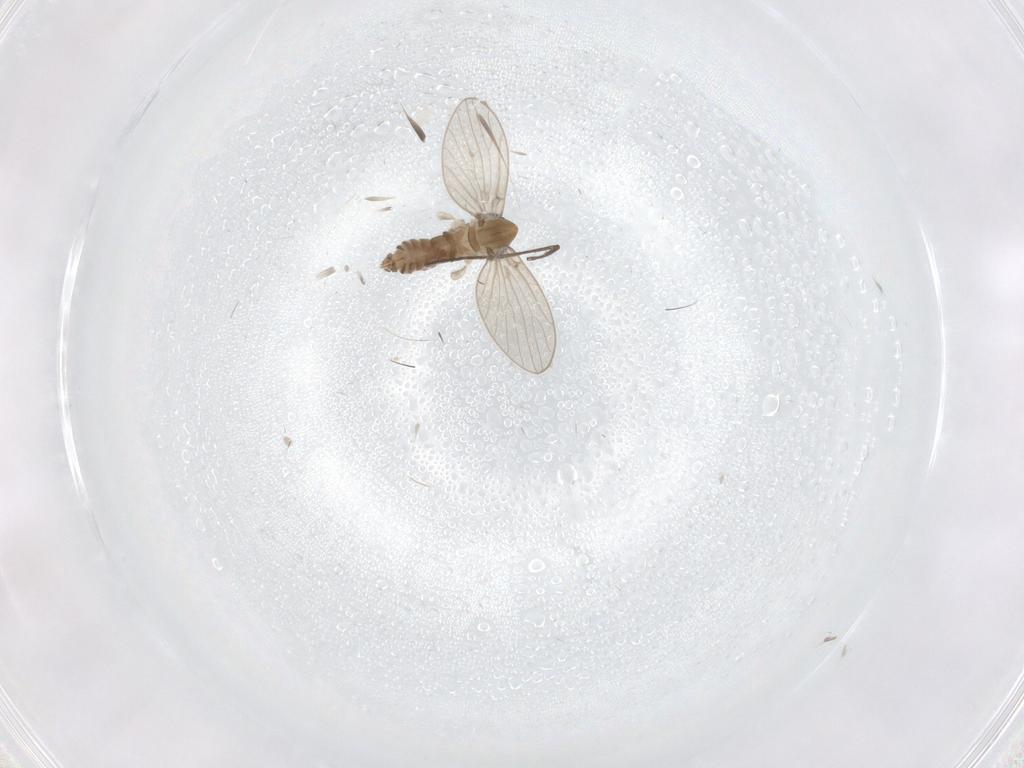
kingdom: Animalia
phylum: Arthropoda
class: Insecta
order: Diptera
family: Sciaridae
